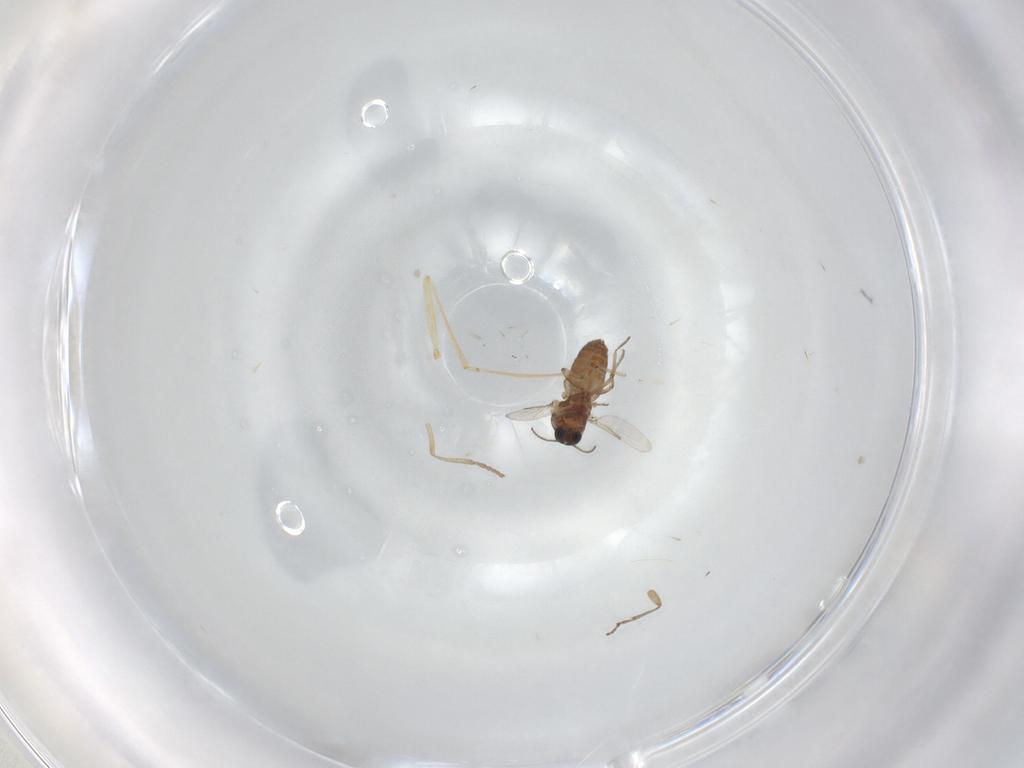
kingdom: Animalia
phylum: Arthropoda
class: Insecta
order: Diptera
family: Ceratopogonidae
